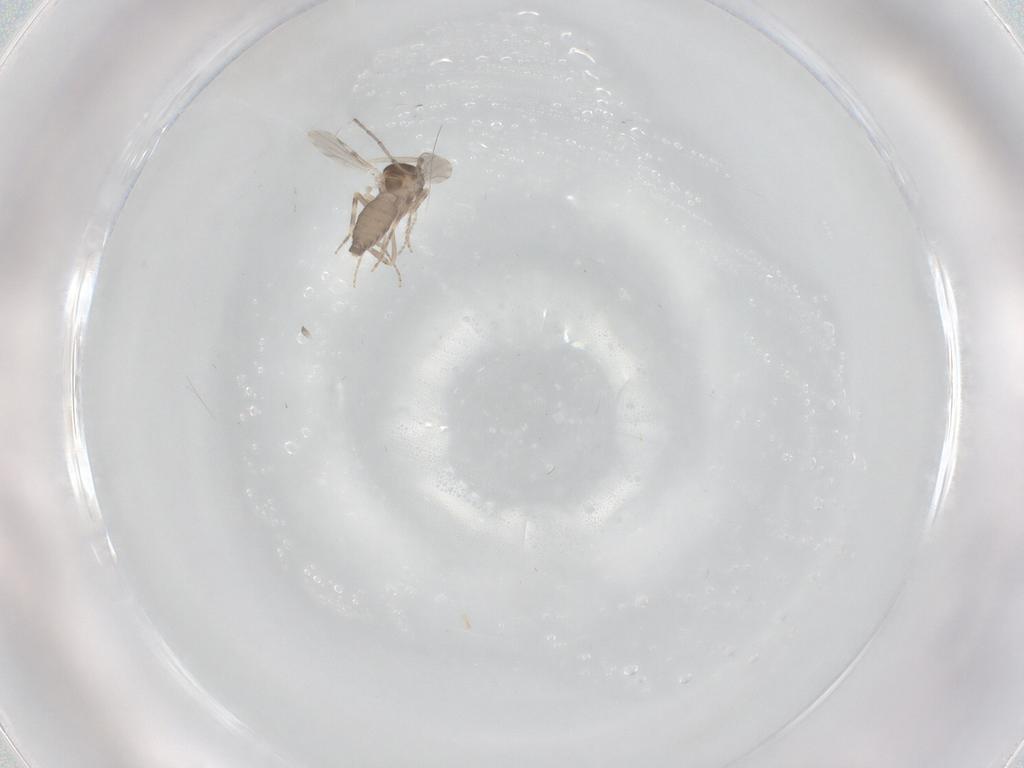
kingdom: Animalia
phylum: Arthropoda
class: Insecta
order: Diptera
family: Ceratopogonidae
